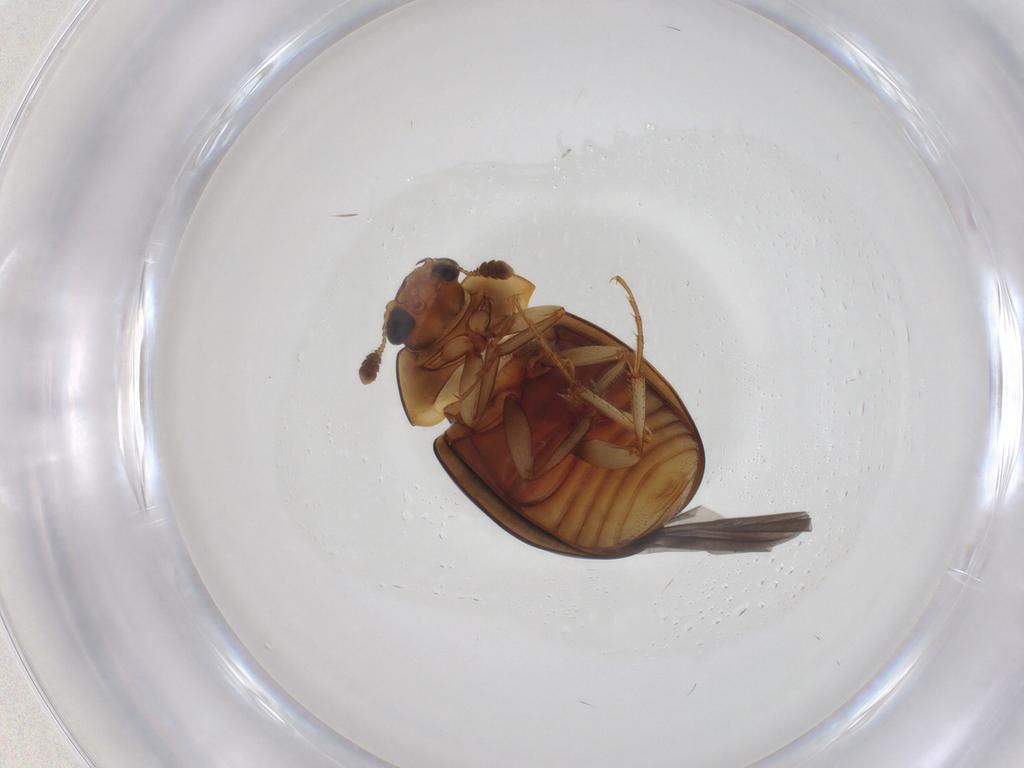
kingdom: Animalia
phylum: Arthropoda
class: Insecta
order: Coleoptera
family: Nitidulidae
